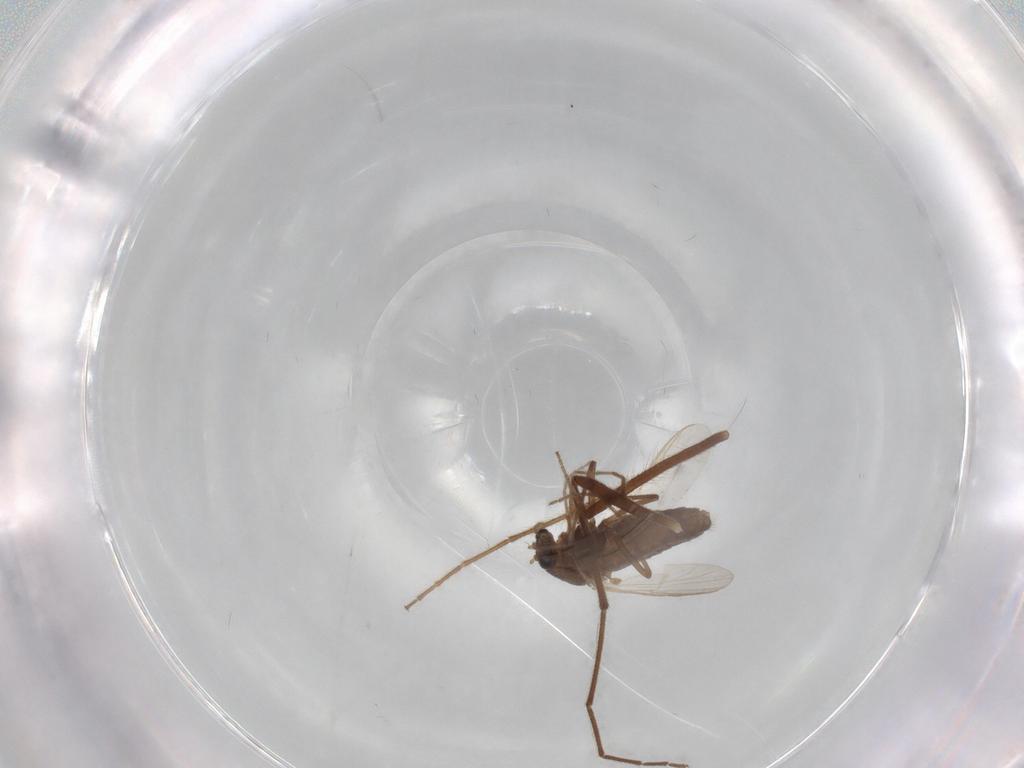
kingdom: Animalia
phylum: Arthropoda
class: Insecta
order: Diptera
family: Chironomidae
